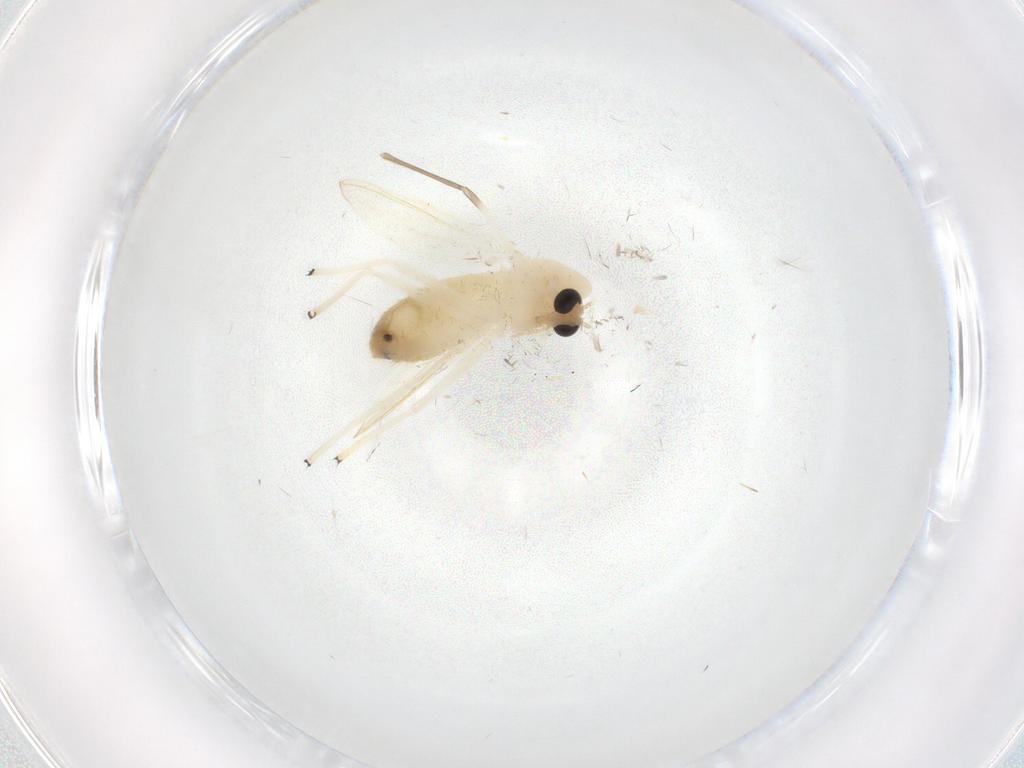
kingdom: Animalia
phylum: Arthropoda
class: Insecta
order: Diptera
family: Chironomidae
